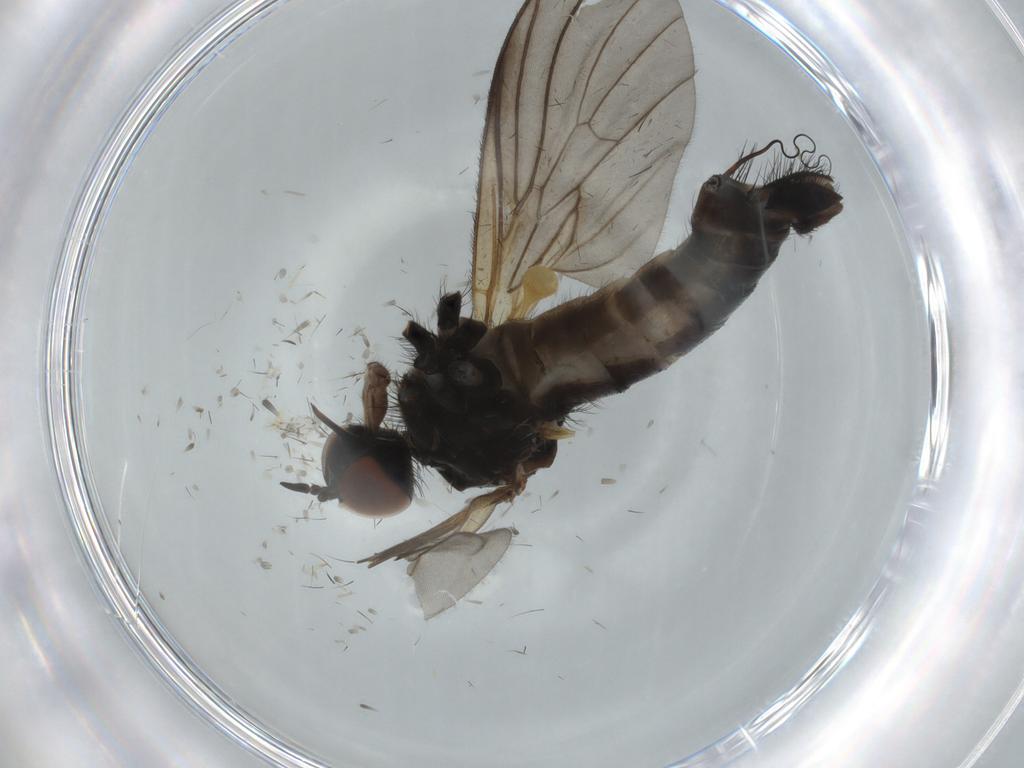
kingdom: Animalia
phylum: Arthropoda
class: Insecta
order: Diptera
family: Empididae
